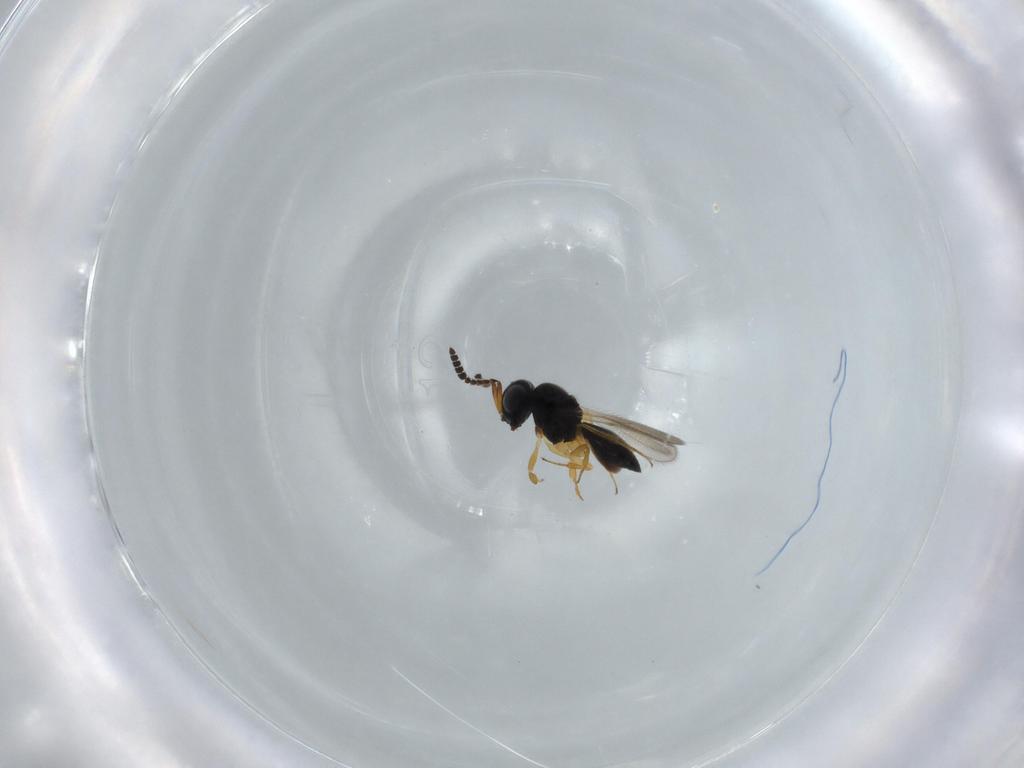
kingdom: Animalia
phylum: Arthropoda
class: Insecta
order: Hymenoptera
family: Scelionidae
